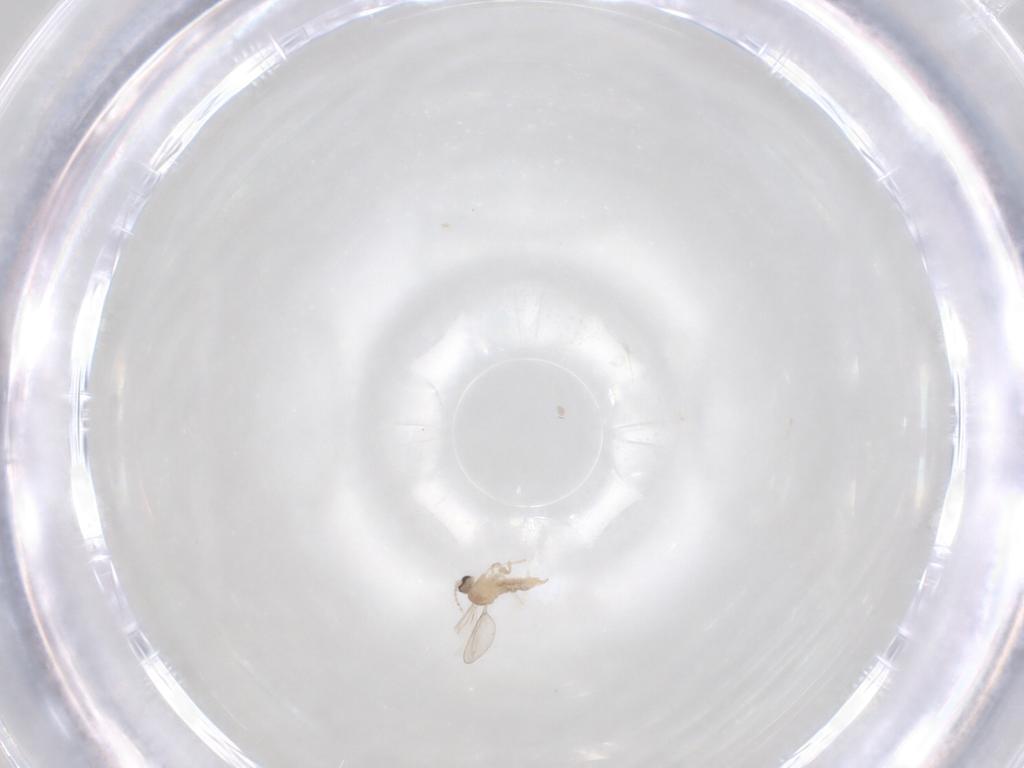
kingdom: Animalia
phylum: Arthropoda
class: Insecta
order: Diptera
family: Cecidomyiidae
